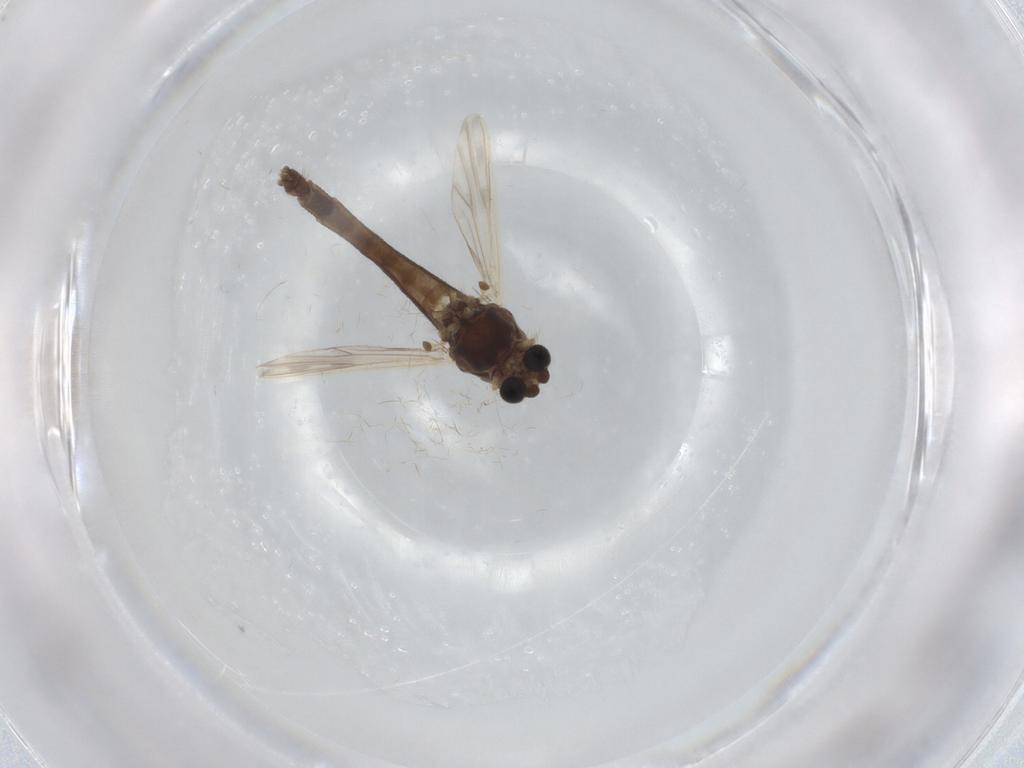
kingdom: Animalia
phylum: Arthropoda
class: Insecta
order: Diptera
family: Chironomidae
